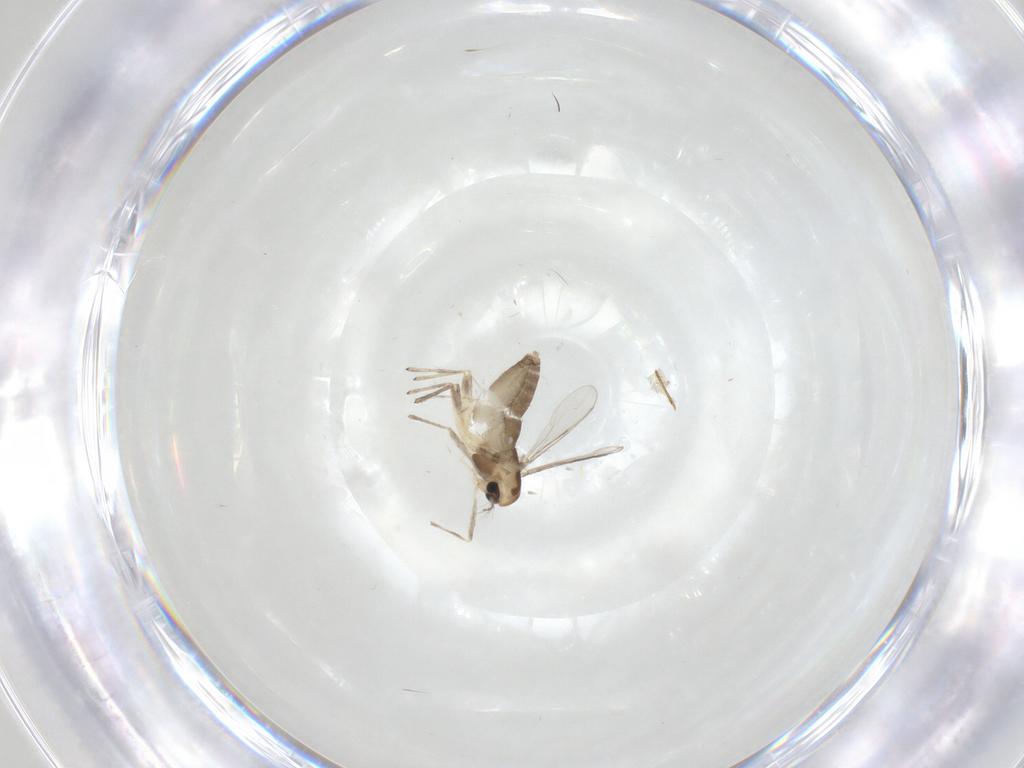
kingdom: Animalia
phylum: Arthropoda
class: Insecta
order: Diptera
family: Chironomidae
